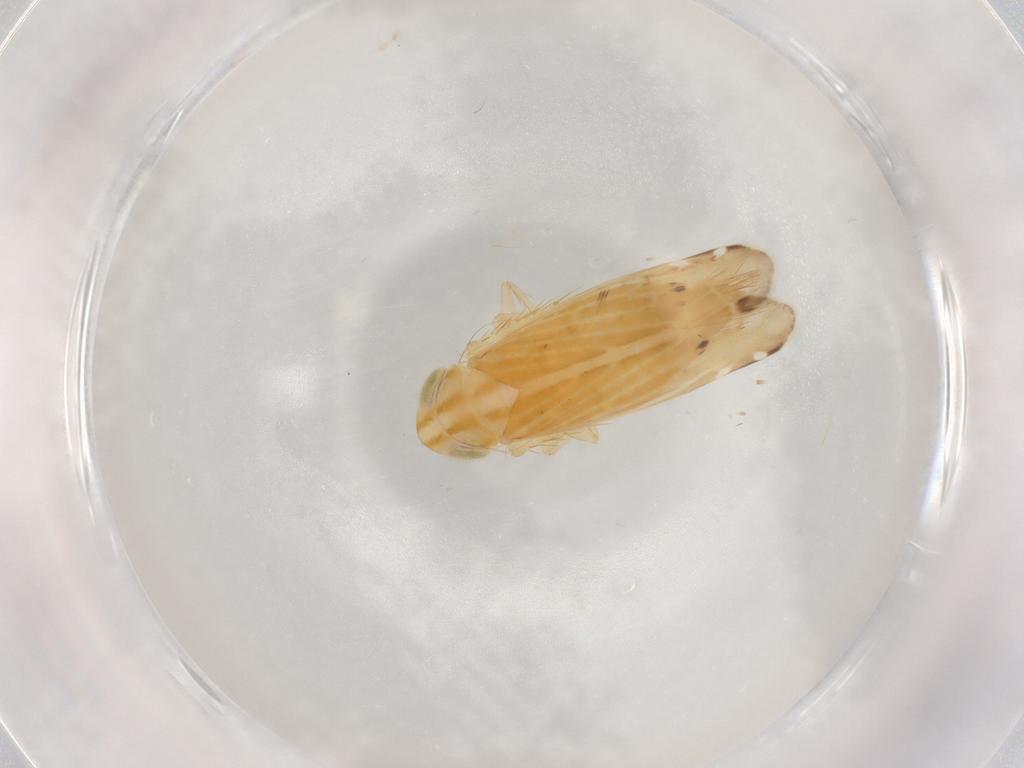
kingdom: Animalia
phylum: Arthropoda
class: Insecta
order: Hemiptera
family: Cicadellidae
